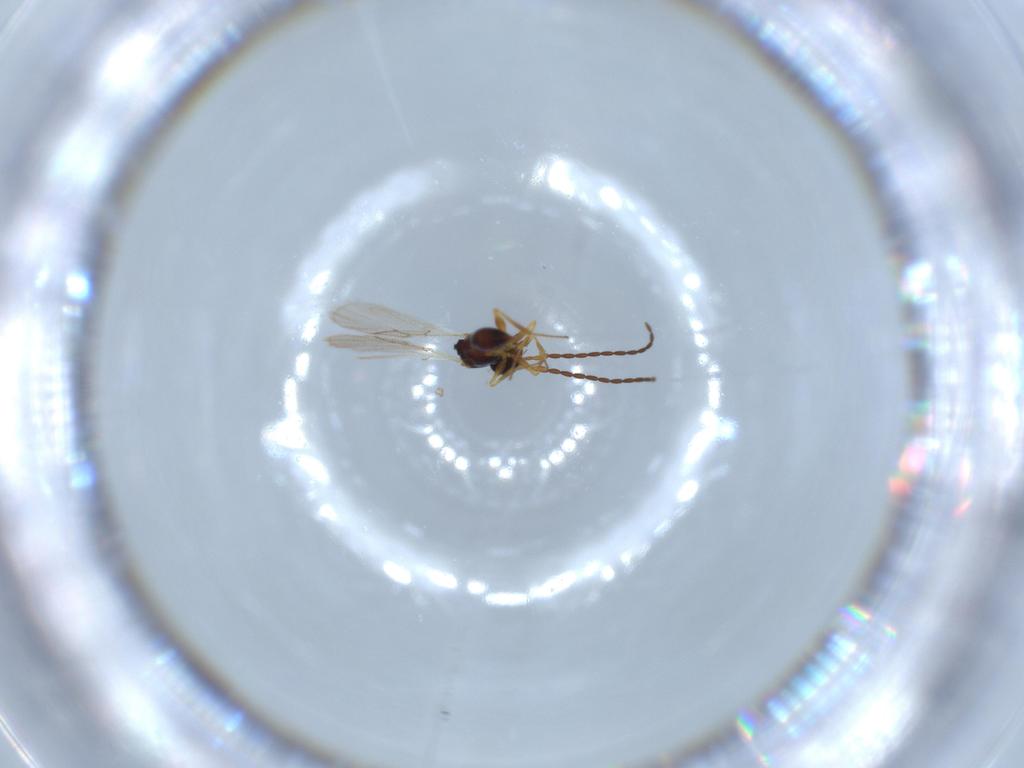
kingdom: Animalia
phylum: Arthropoda
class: Insecta
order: Hymenoptera
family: Figitidae
